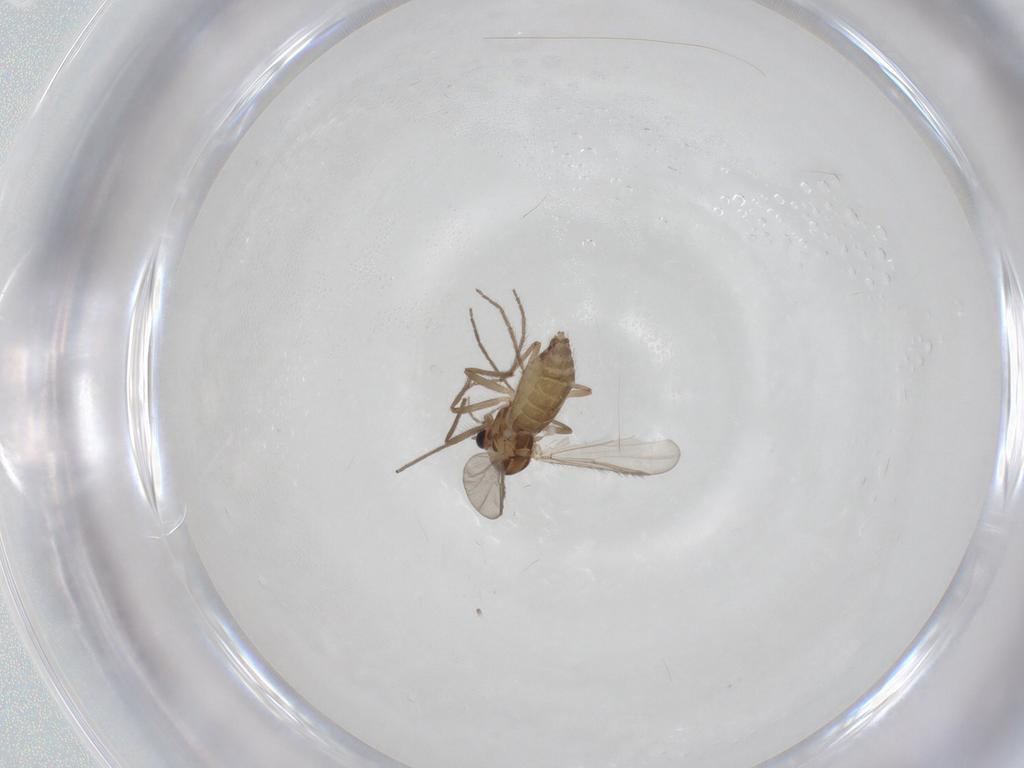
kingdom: Animalia
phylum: Arthropoda
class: Insecta
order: Diptera
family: Chironomidae
